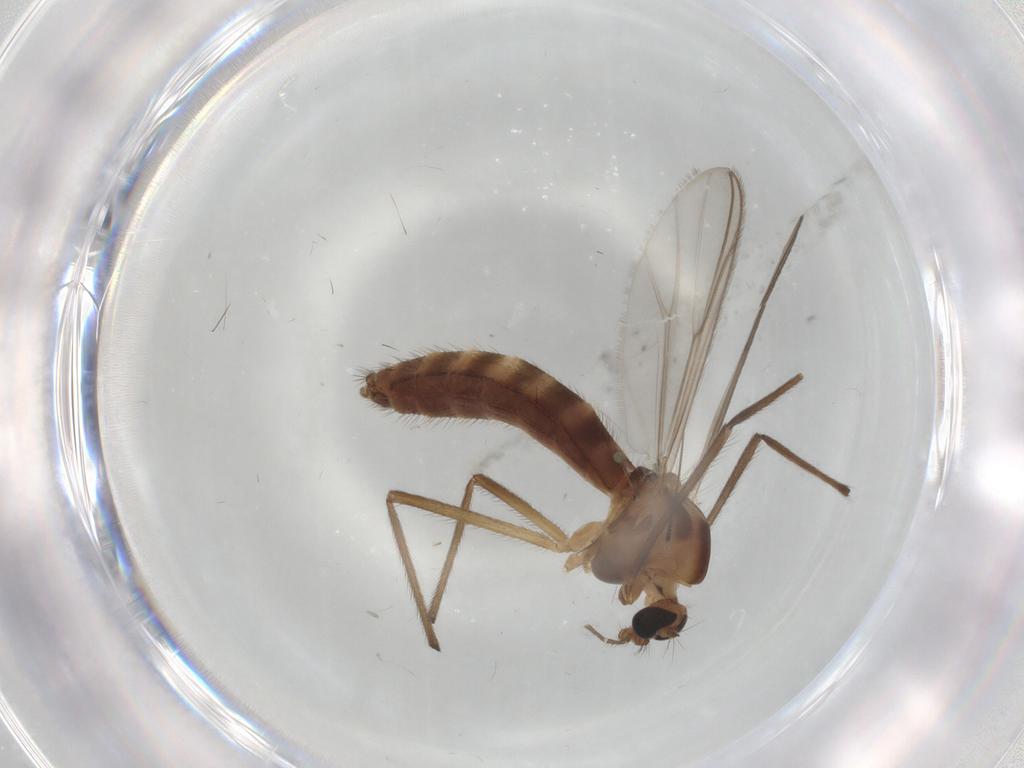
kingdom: Animalia
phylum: Arthropoda
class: Insecta
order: Diptera
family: Chironomidae
